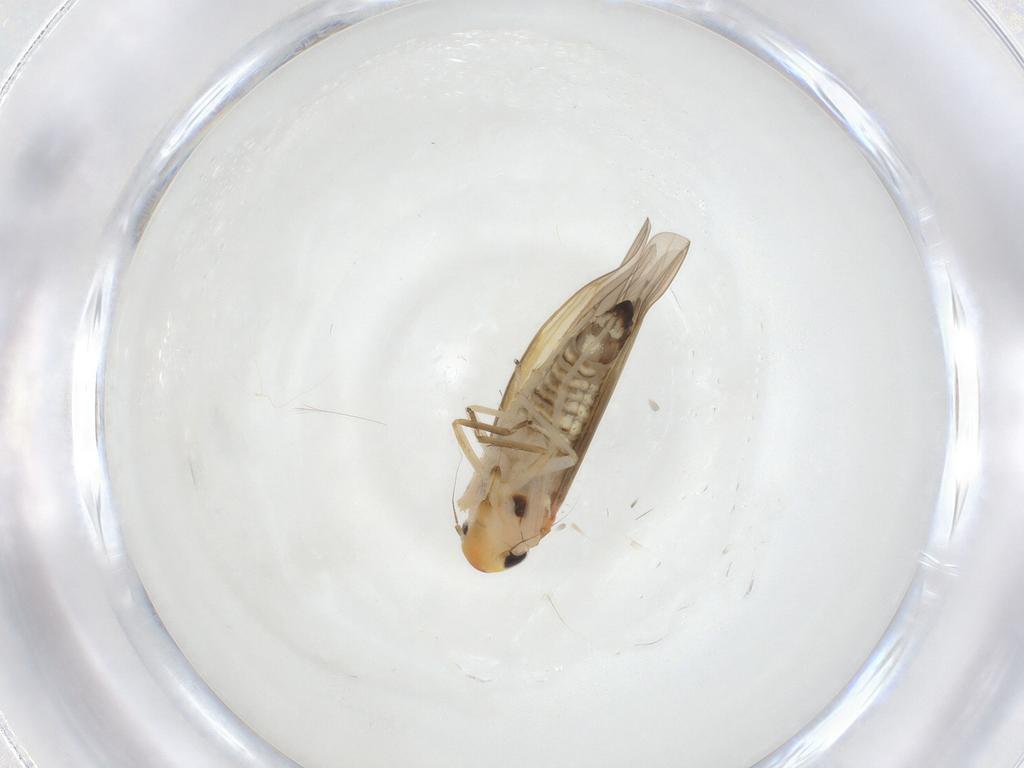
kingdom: Animalia
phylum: Arthropoda
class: Insecta
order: Hemiptera
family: Cicadellidae
